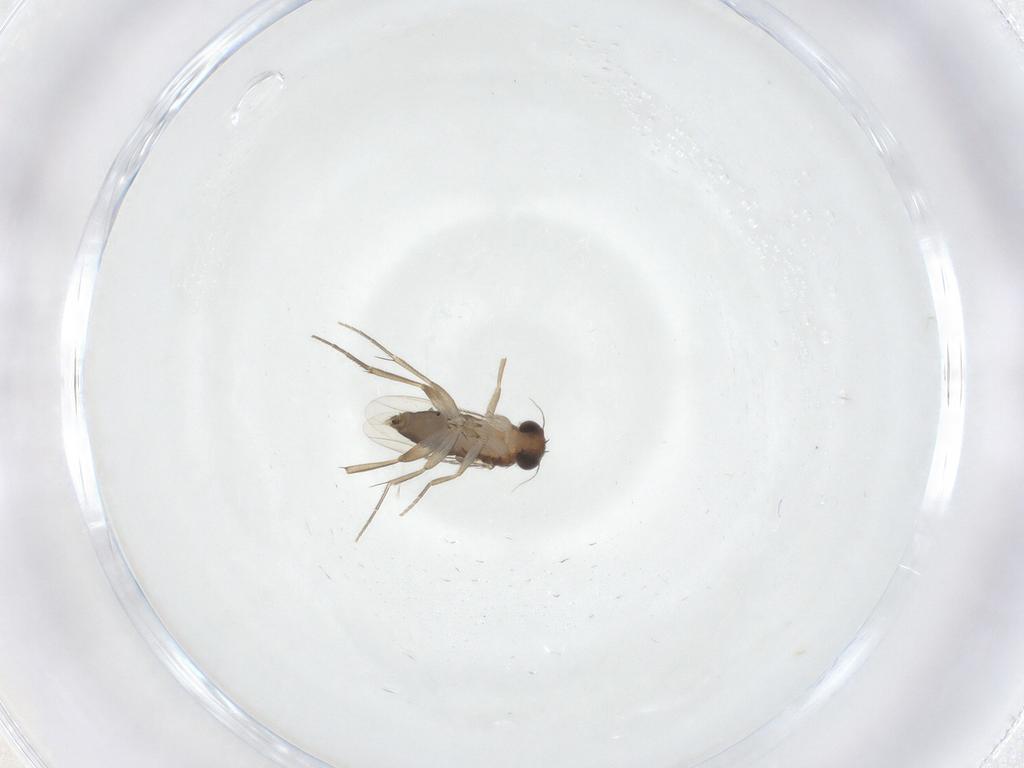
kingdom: Animalia
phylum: Arthropoda
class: Insecta
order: Diptera
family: Phoridae
